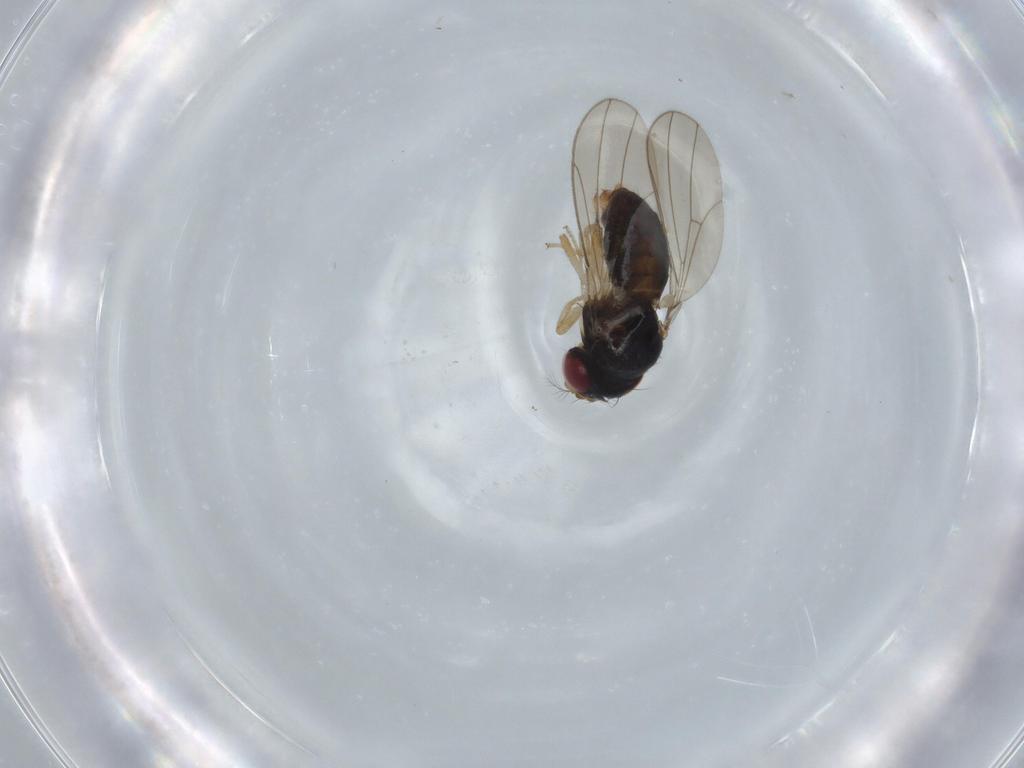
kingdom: Animalia
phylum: Arthropoda
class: Insecta
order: Diptera
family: Drosophilidae
